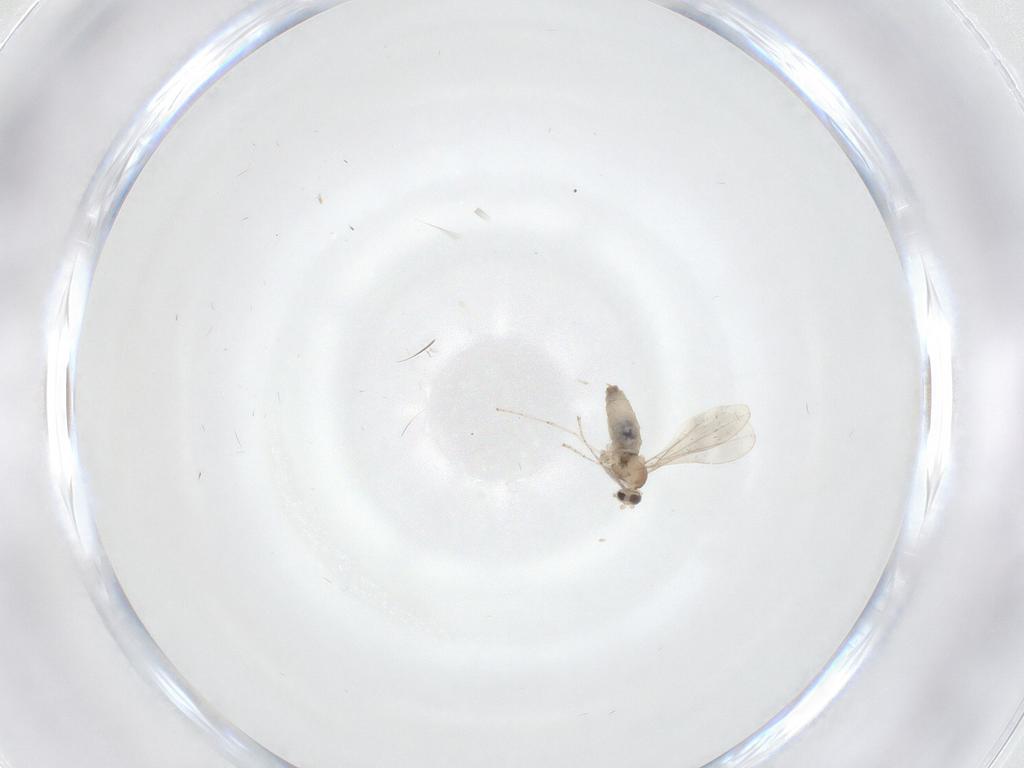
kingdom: Animalia
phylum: Arthropoda
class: Insecta
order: Diptera
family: Cecidomyiidae
